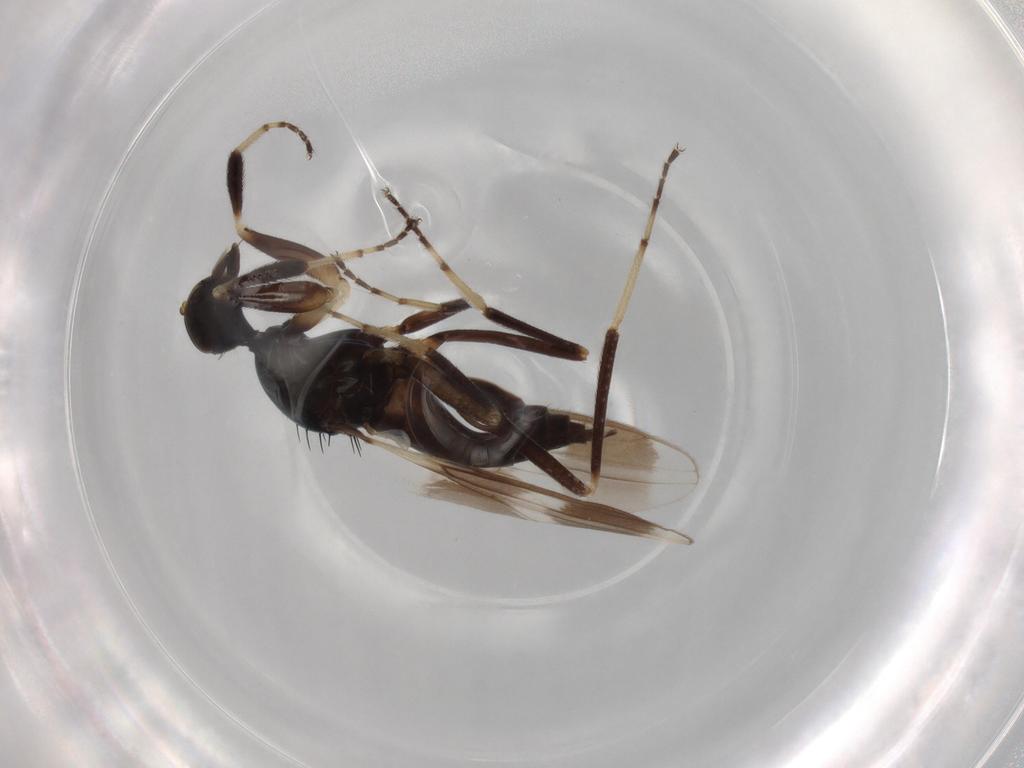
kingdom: Animalia
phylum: Arthropoda
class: Insecta
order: Diptera
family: Hybotidae
